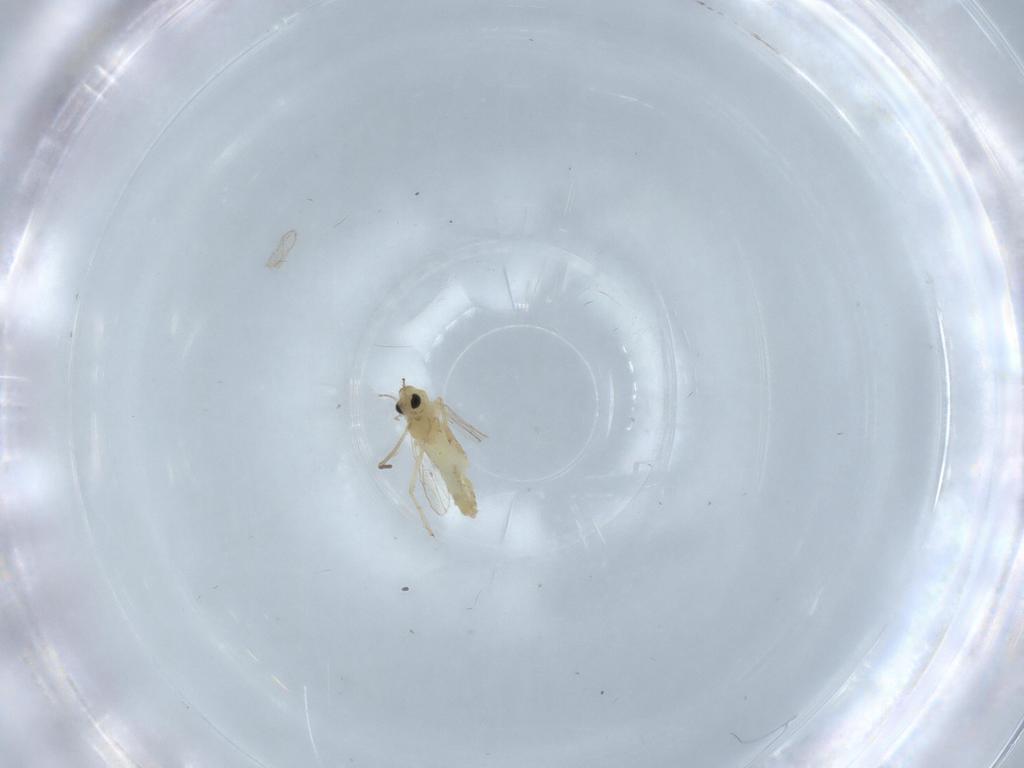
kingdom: Animalia
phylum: Arthropoda
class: Insecta
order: Diptera
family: Chironomidae
